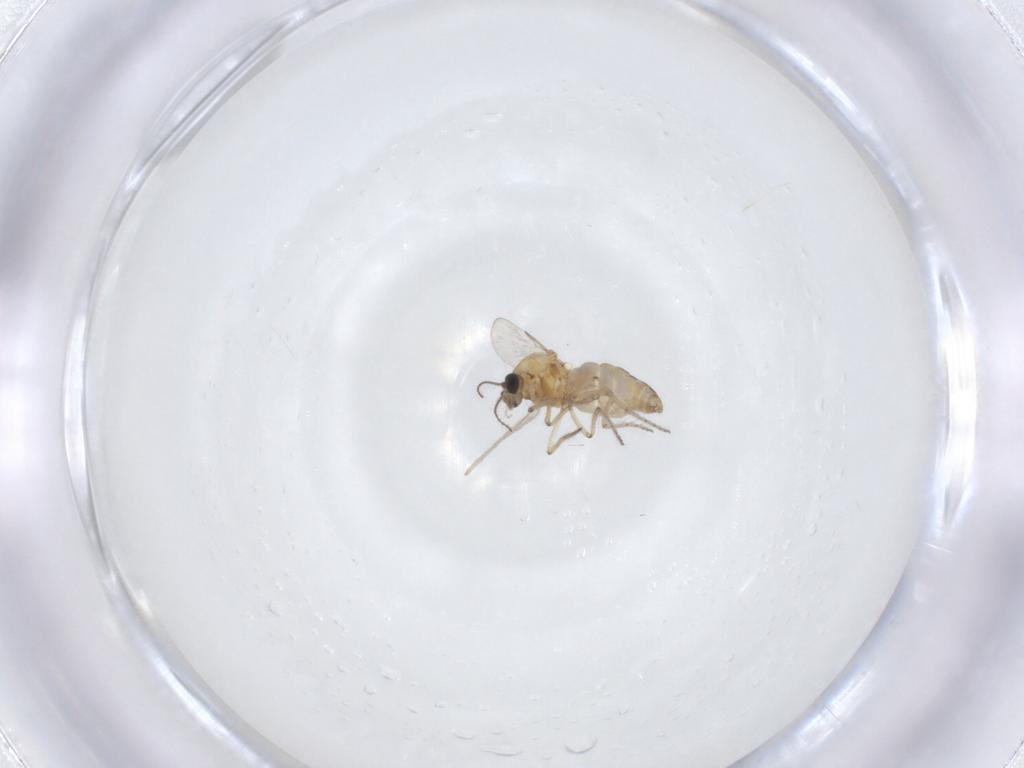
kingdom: Animalia
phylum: Arthropoda
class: Insecta
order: Diptera
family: Ceratopogonidae
